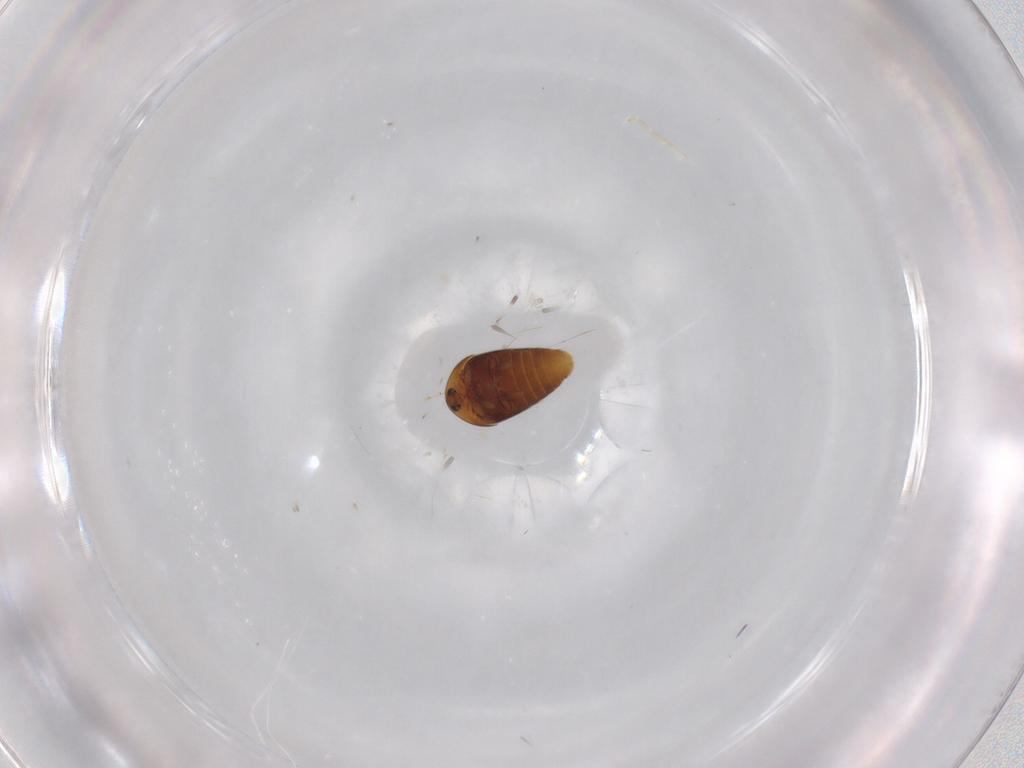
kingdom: Animalia
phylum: Arthropoda
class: Insecta
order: Coleoptera
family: Corylophidae
